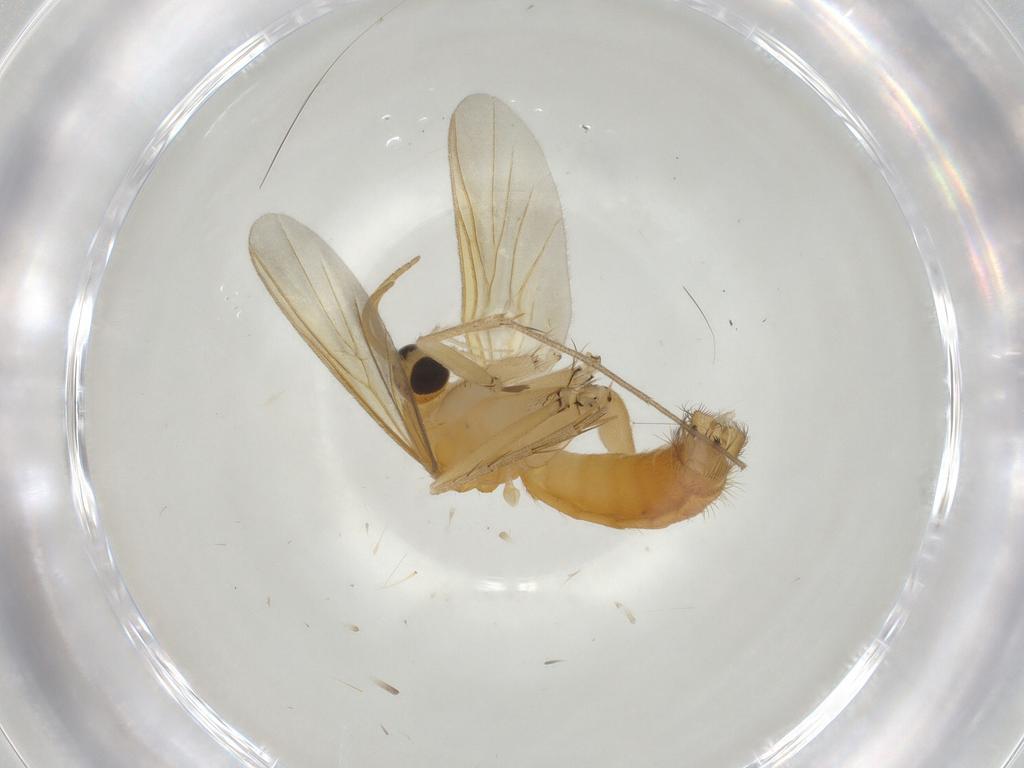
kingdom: Animalia
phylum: Arthropoda
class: Insecta
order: Diptera
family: Mycetophilidae
